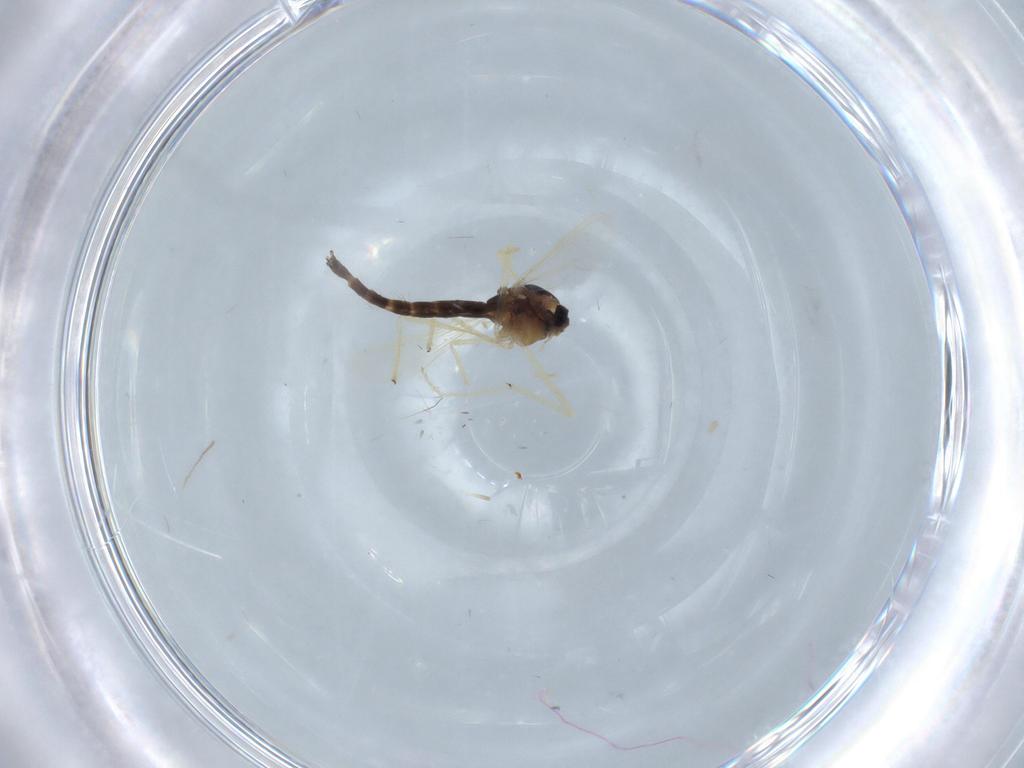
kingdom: Animalia
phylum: Arthropoda
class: Insecta
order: Diptera
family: Chironomidae
